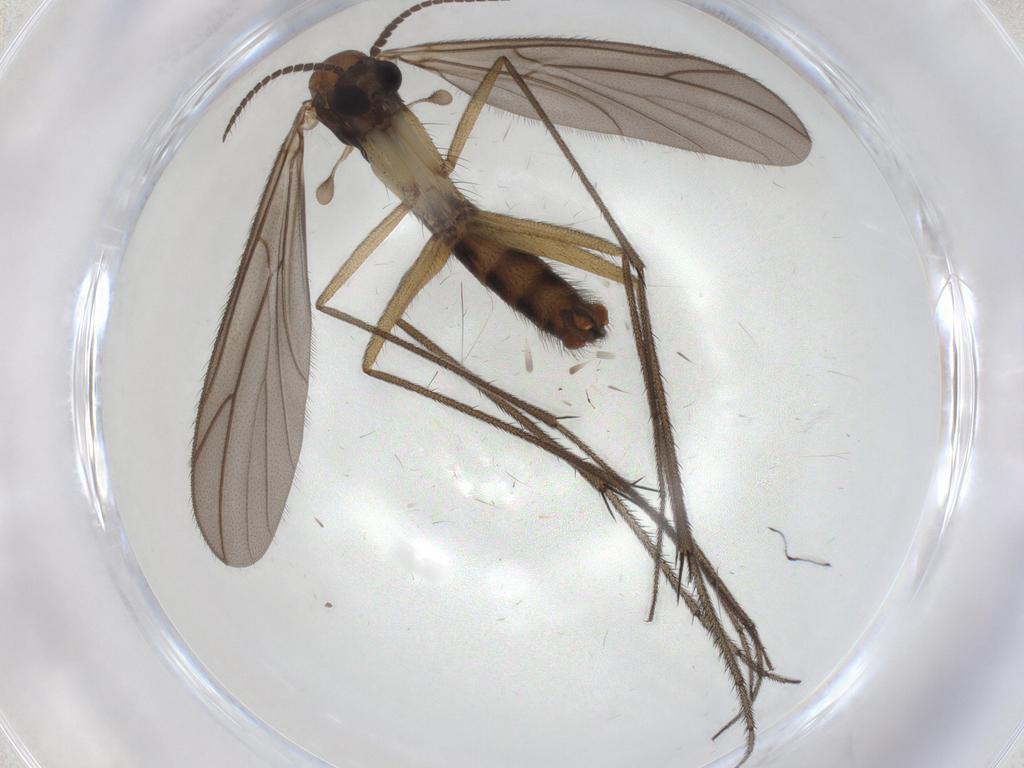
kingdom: Animalia
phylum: Arthropoda
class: Insecta
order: Diptera
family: Ditomyiidae
